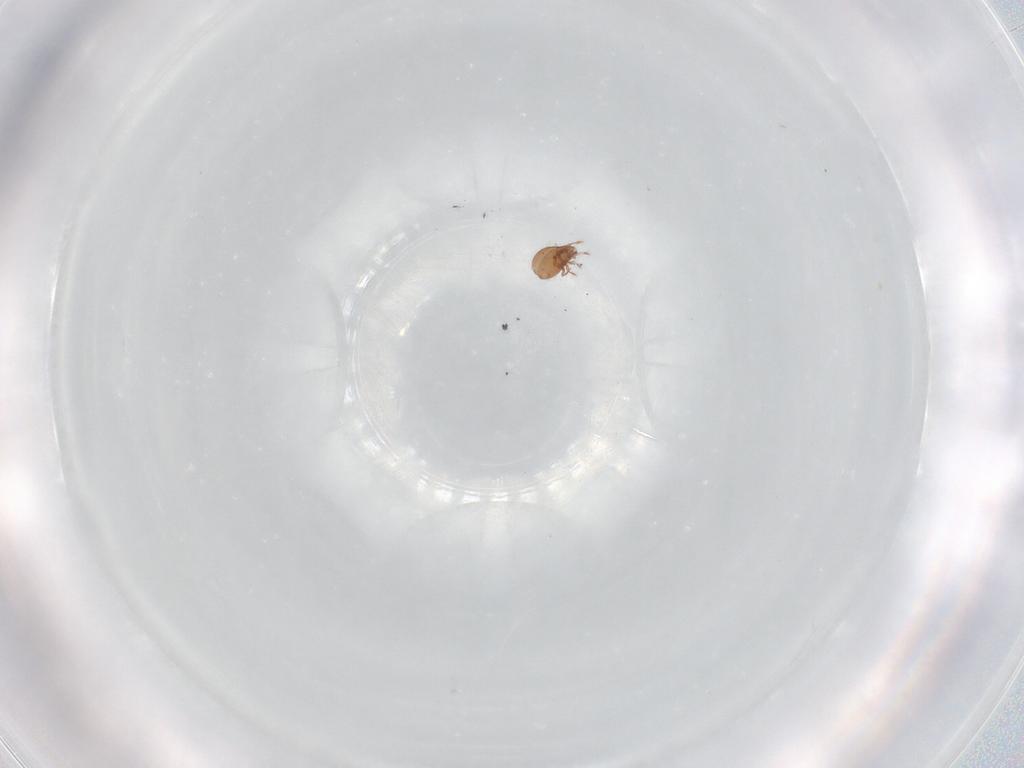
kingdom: Animalia
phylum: Arthropoda
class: Arachnida
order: Sarcoptiformes
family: Eremaeidae
